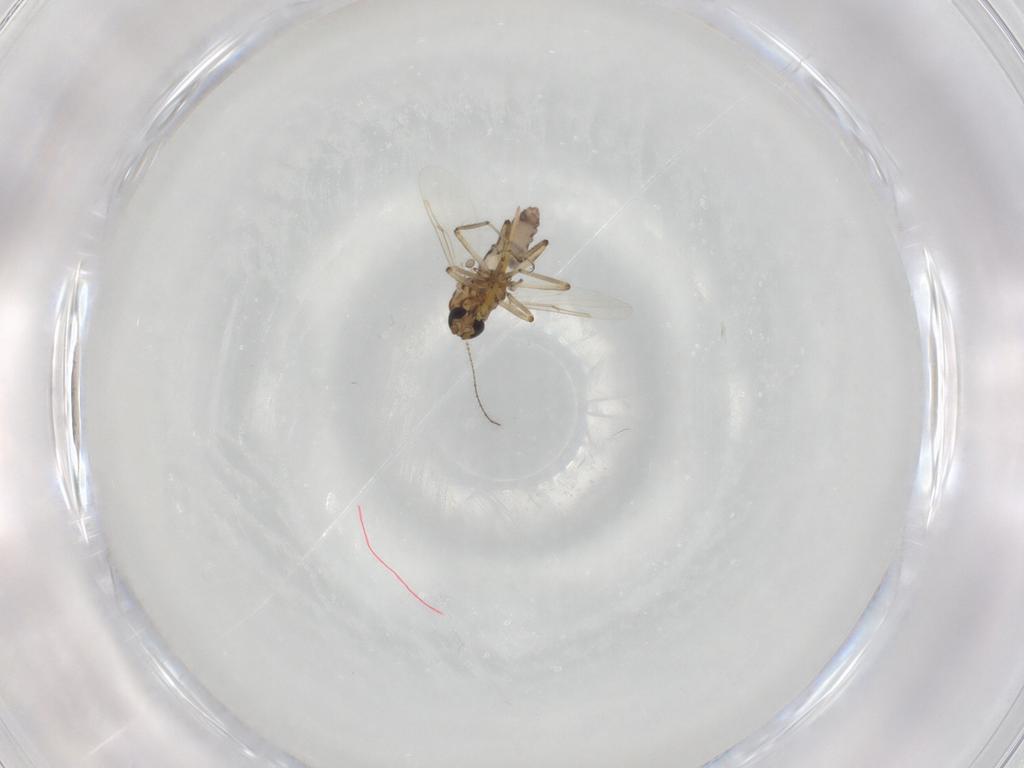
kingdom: Animalia
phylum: Arthropoda
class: Insecta
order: Diptera
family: Ceratopogonidae
